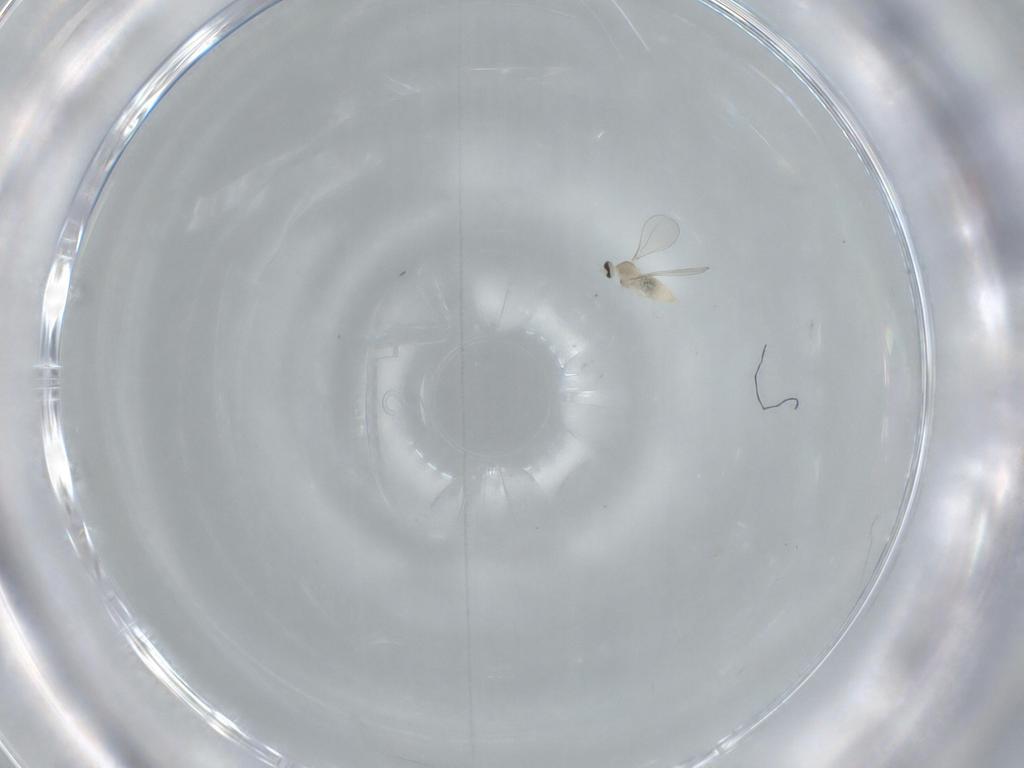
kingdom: Animalia
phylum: Arthropoda
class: Insecta
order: Diptera
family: Cecidomyiidae
